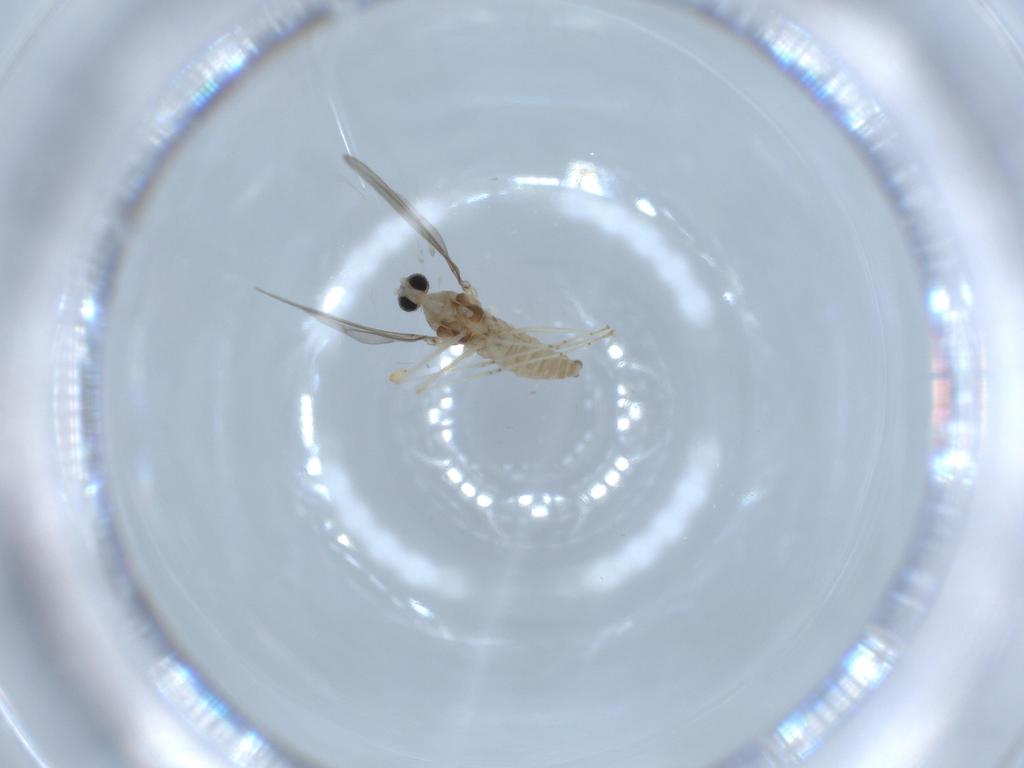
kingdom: Animalia
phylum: Arthropoda
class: Insecta
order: Diptera
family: Cecidomyiidae
